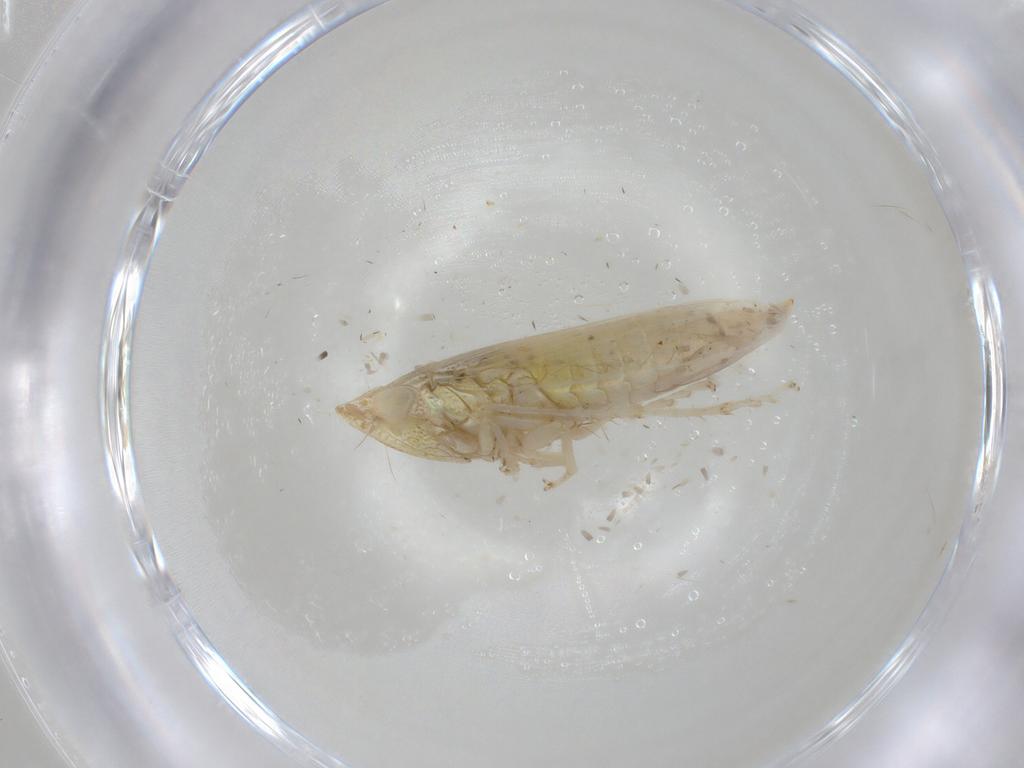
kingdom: Animalia
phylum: Arthropoda
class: Insecta
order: Hemiptera
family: Cicadellidae
